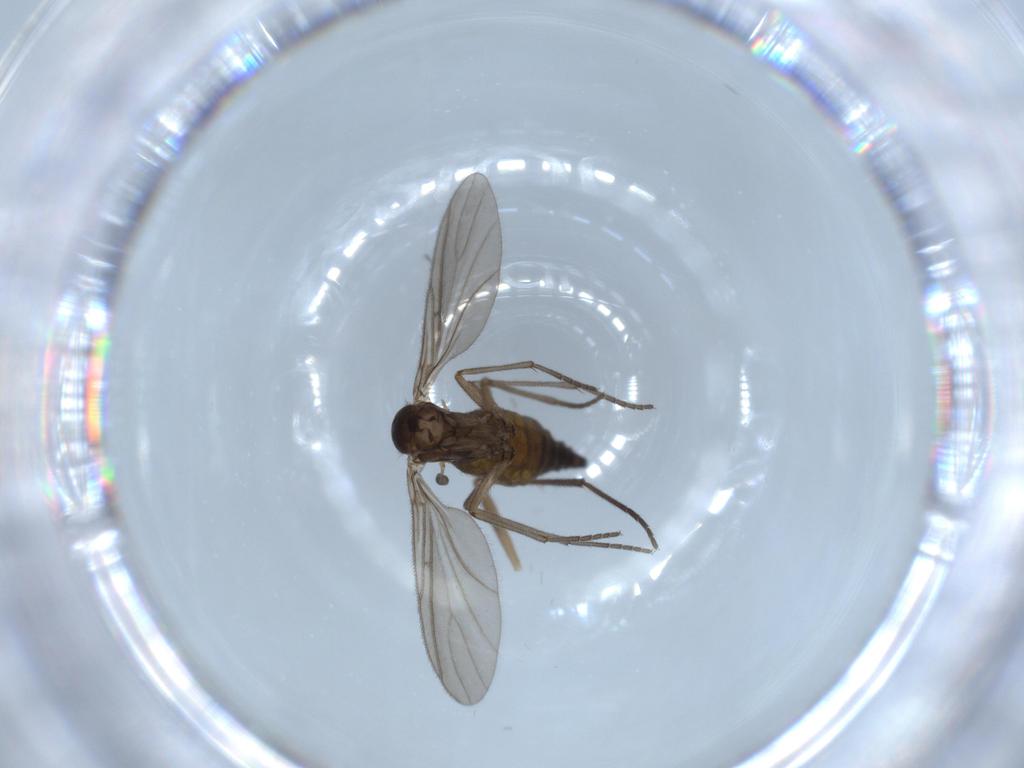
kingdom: Animalia
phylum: Arthropoda
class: Insecta
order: Diptera
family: Sciaridae
